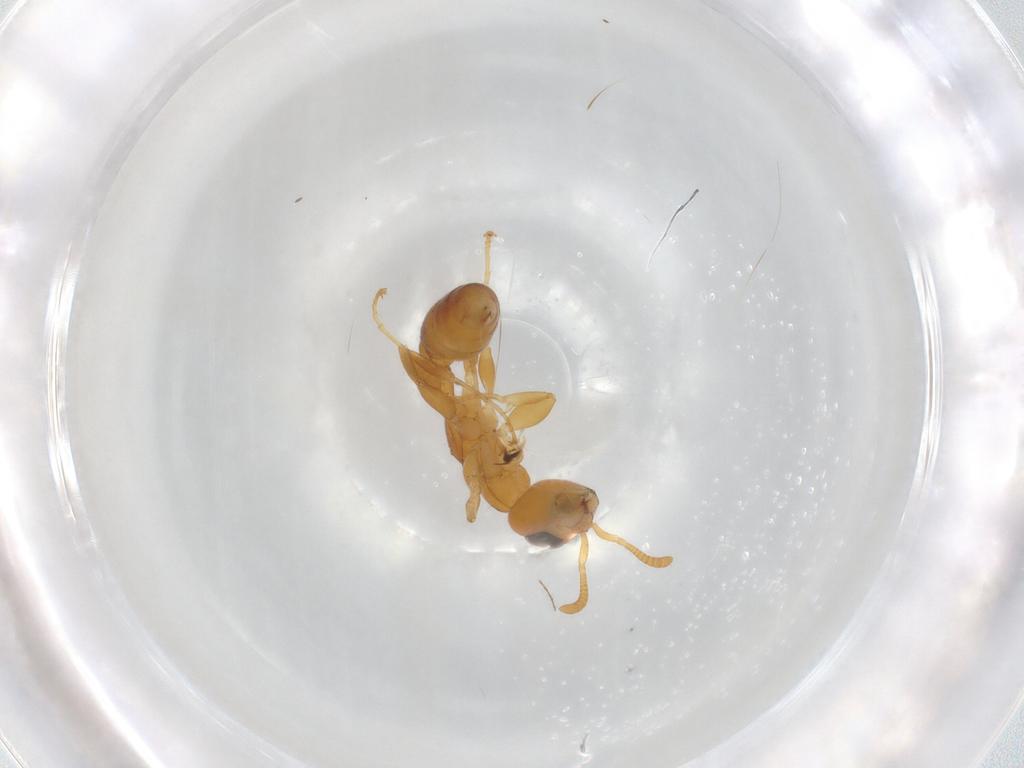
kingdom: Animalia
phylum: Arthropoda
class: Insecta
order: Hymenoptera
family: Formicidae
